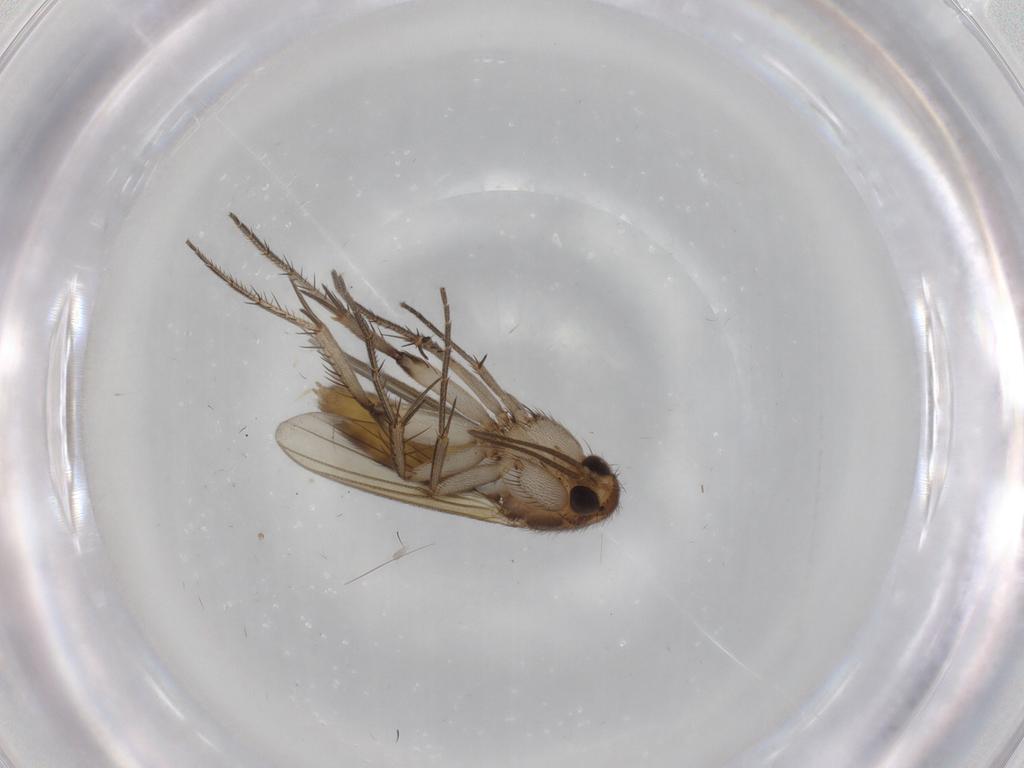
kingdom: Animalia
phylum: Arthropoda
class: Insecta
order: Diptera
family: Mycetophilidae
